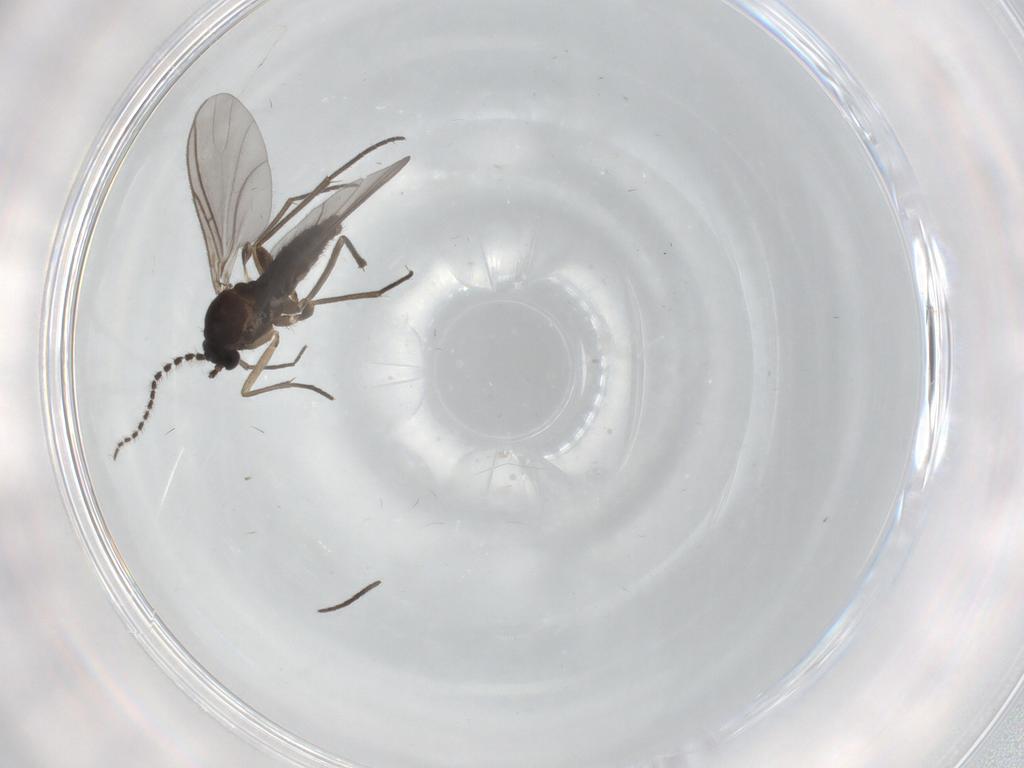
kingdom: Animalia
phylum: Arthropoda
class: Insecta
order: Diptera
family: Sciaridae
